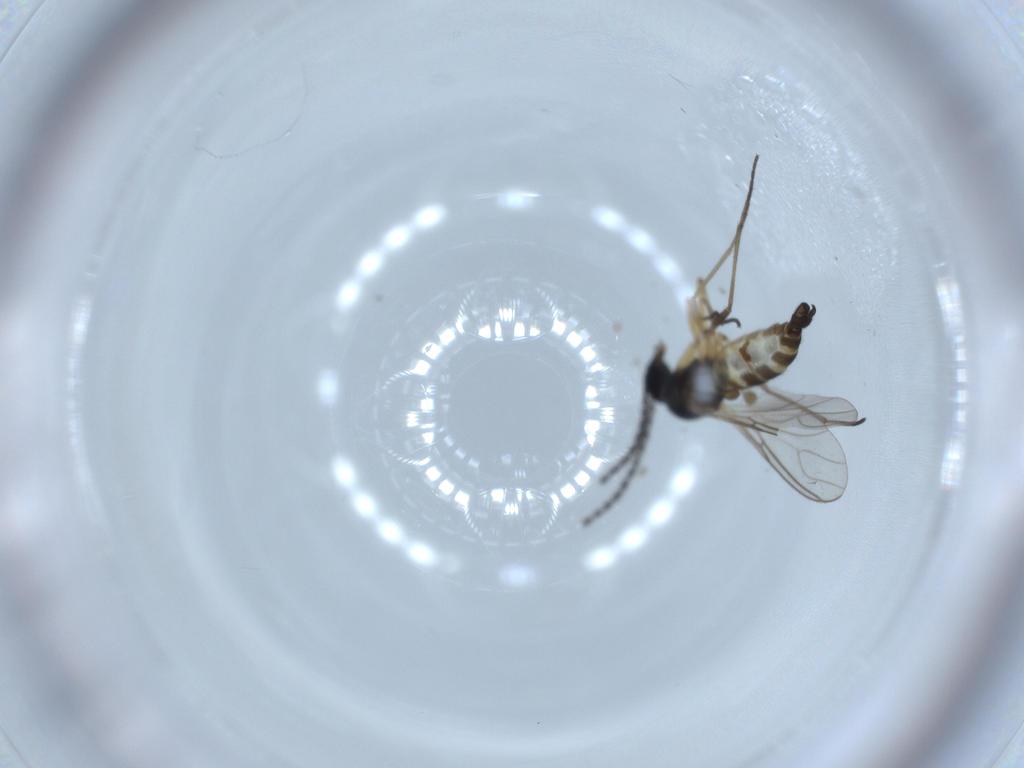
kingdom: Animalia
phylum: Arthropoda
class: Insecta
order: Diptera
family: Sciaridae
